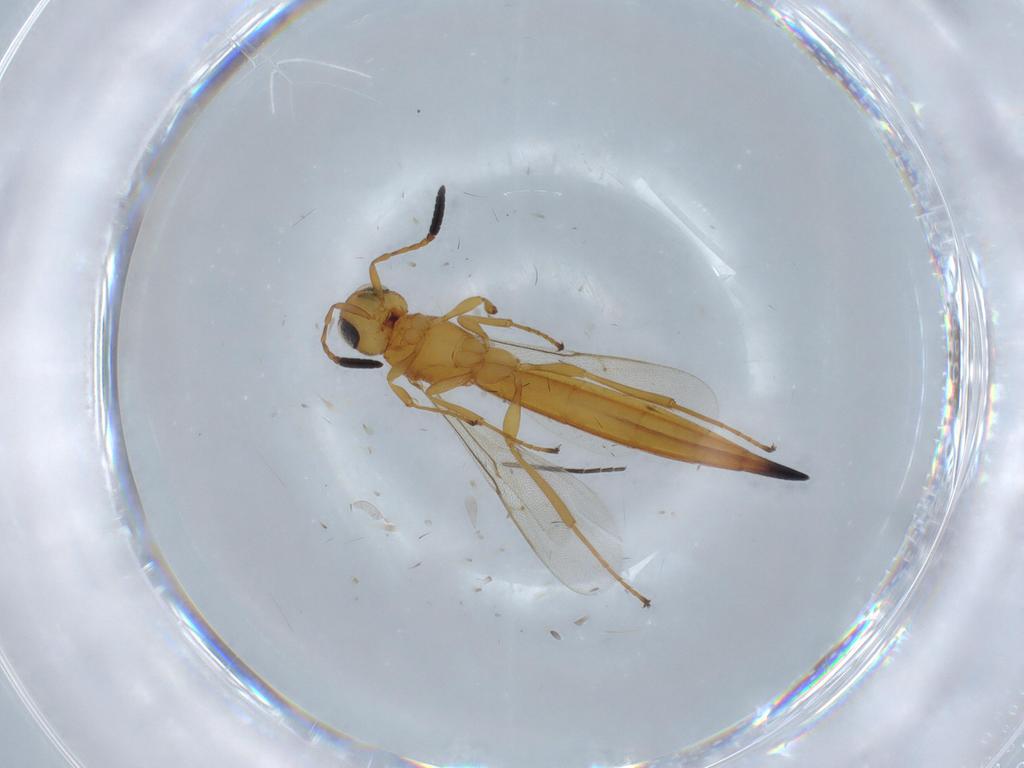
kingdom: Animalia
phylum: Arthropoda
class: Insecta
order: Hymenoptera
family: Scelionidae
